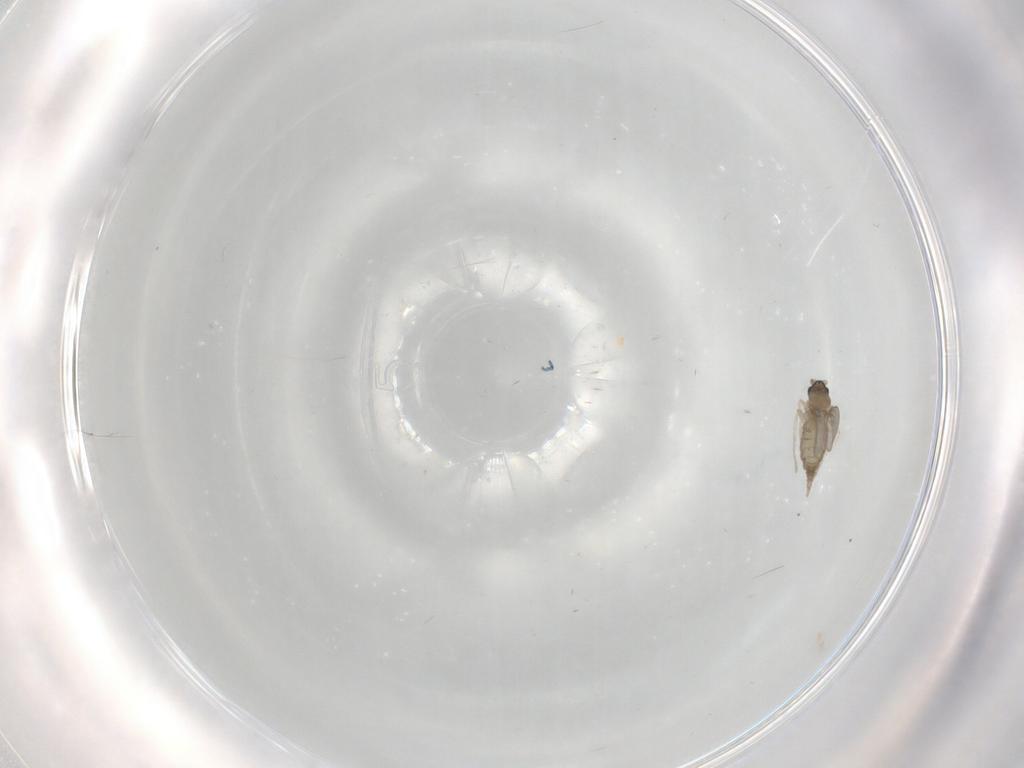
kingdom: Animalia
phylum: Arthropoda
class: Insecta
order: Diptera
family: Cecidomyiidae
